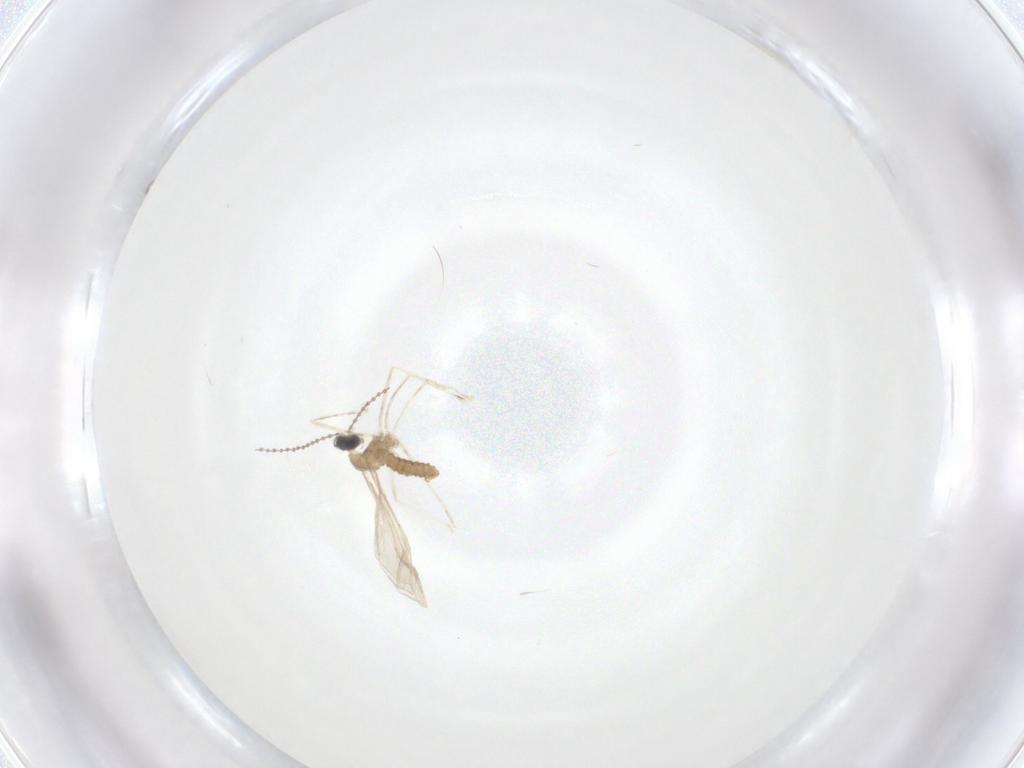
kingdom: Animalia
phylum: Arthropoda
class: Insecta
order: Diptera
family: Cecidomyiidae
